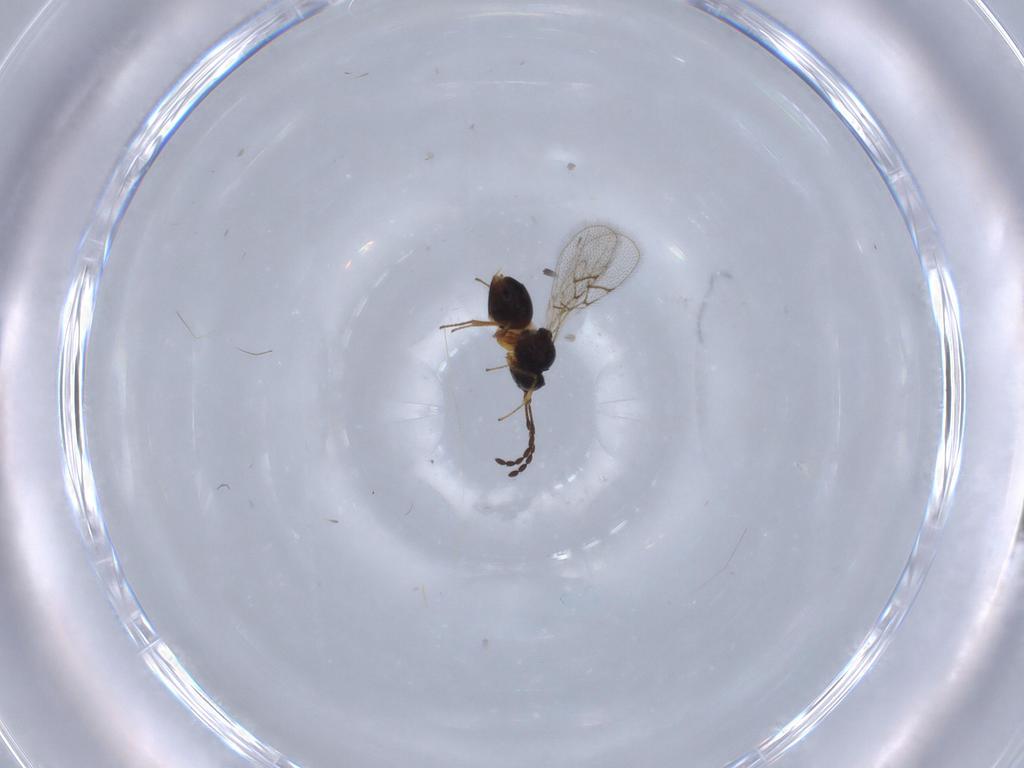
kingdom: Animalia
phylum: Arthropoda
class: Insecta
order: Hymenoptera
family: Figitidae
